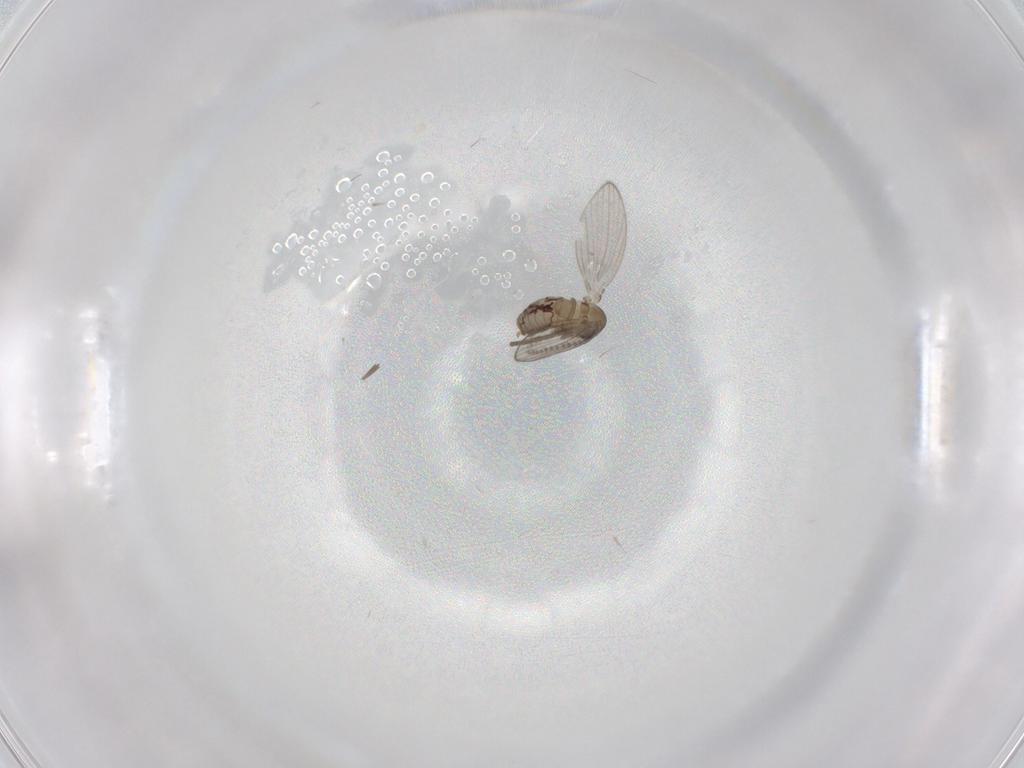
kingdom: Animalia
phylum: Arthropoda
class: Insecta
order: Diptera
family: Psychodidae
